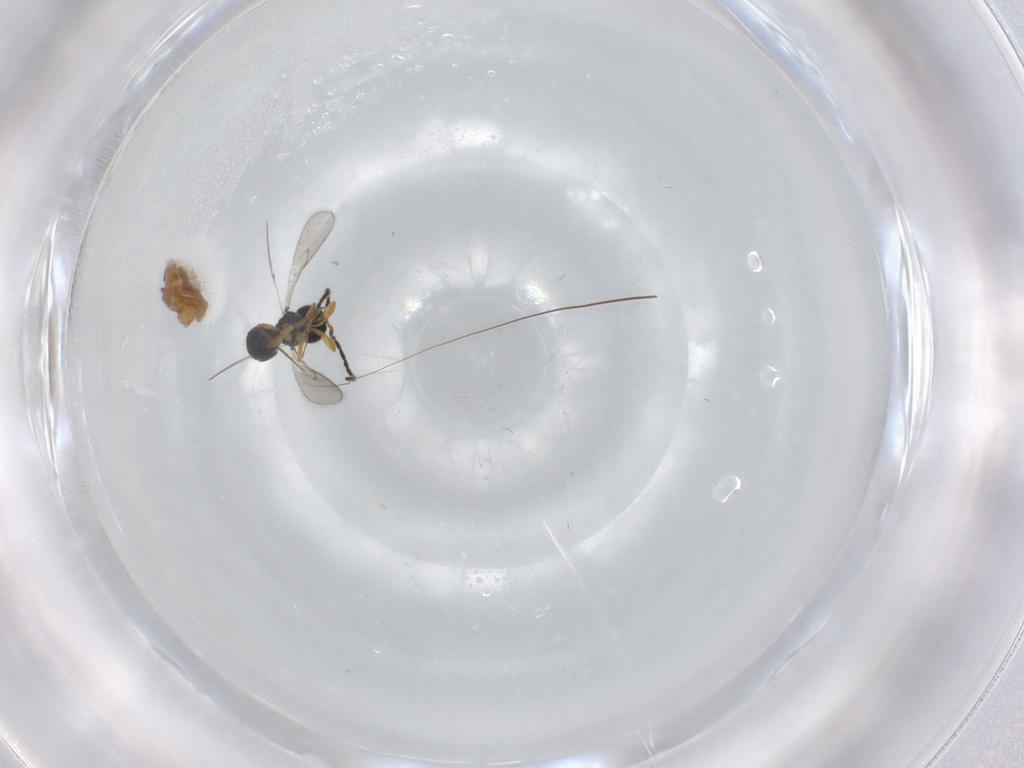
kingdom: Animalia
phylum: Arthropoda
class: Insecta
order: Hymenoptera
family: Scelionidae
